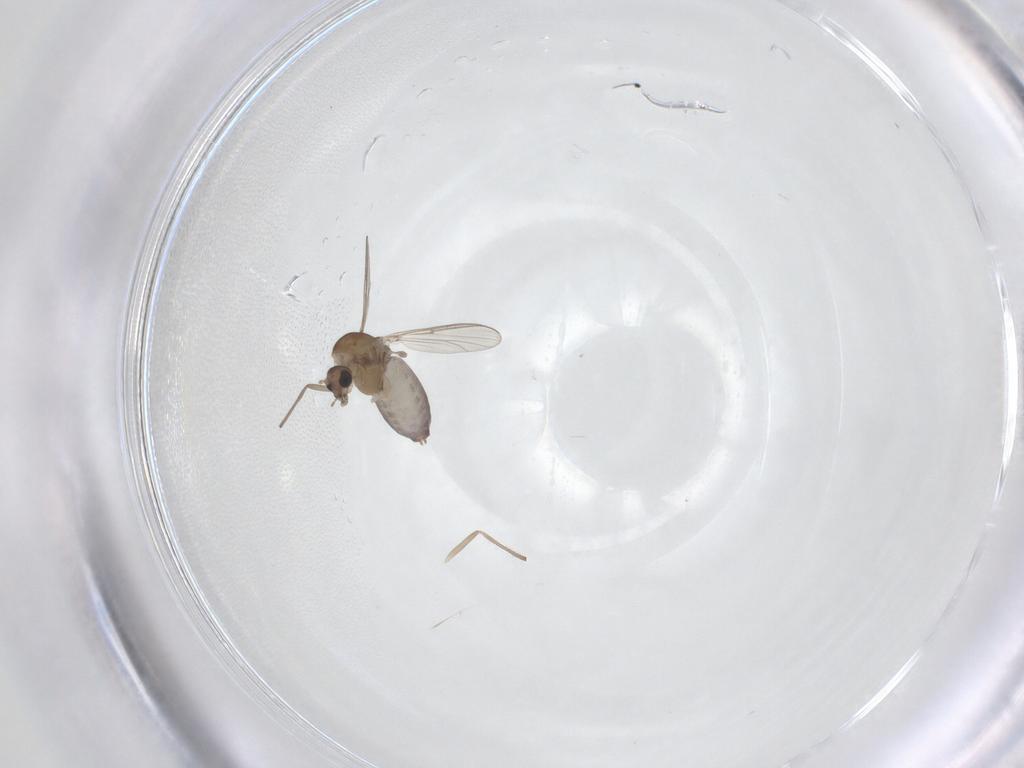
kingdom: Animalia
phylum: Arthropoda
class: Insecta
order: Diptera
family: Chironomidae
